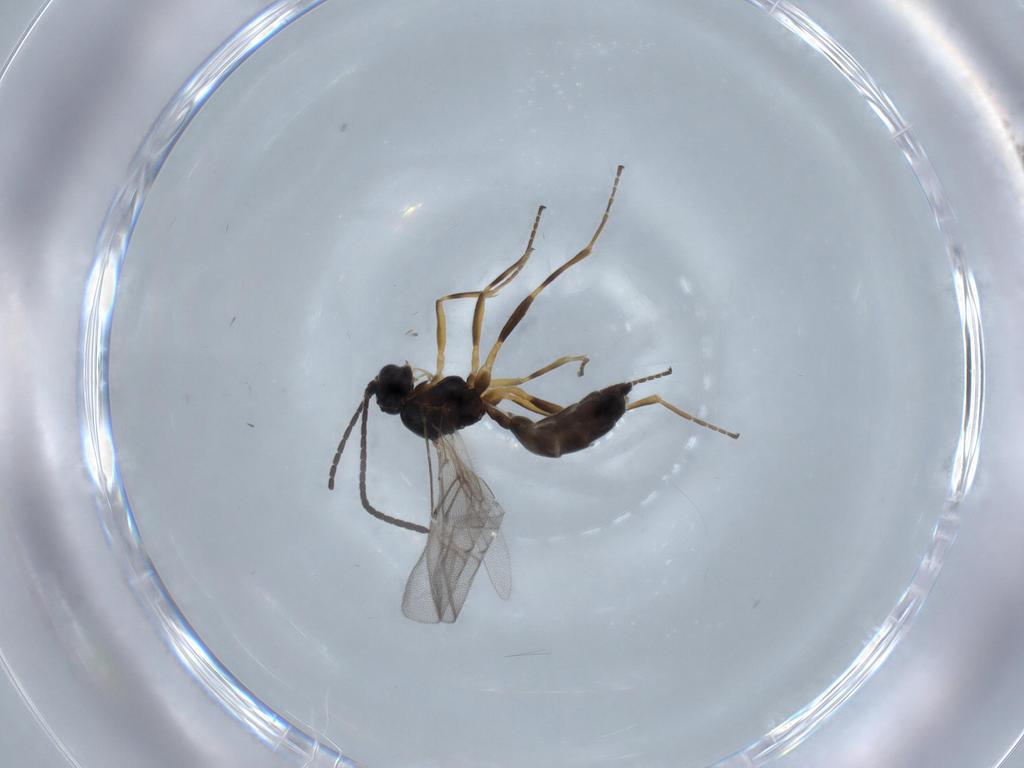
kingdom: Animalia
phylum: Arthropoda
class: Insecta
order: Hymenoptera
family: Braconidae
